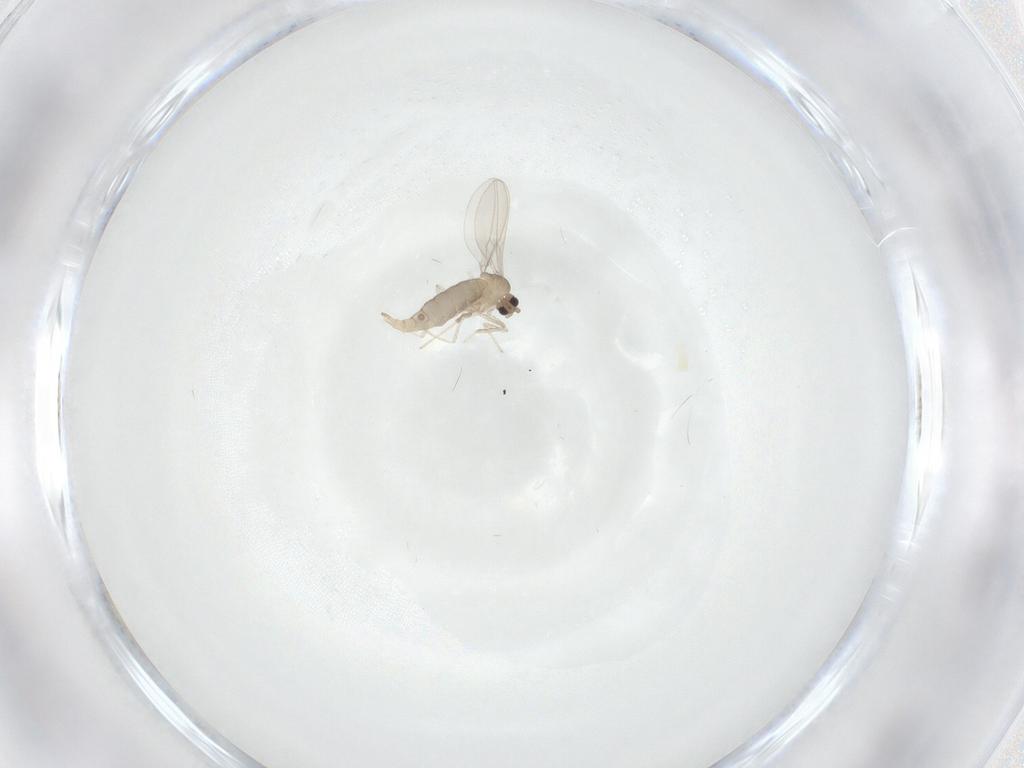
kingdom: Animalia
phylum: Arthropoda
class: Insecta
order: Diptera
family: Cecidomyiidae
